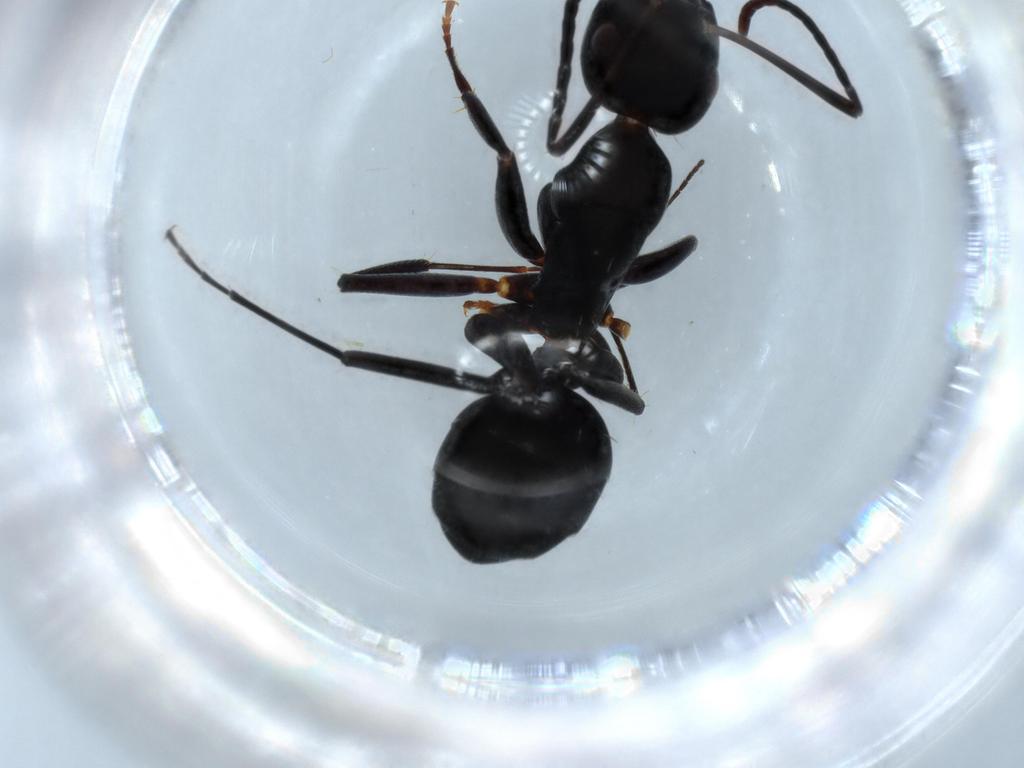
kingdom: Animalia
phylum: Arthropoda
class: Insecta
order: Hymenoptera
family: Formicidae
